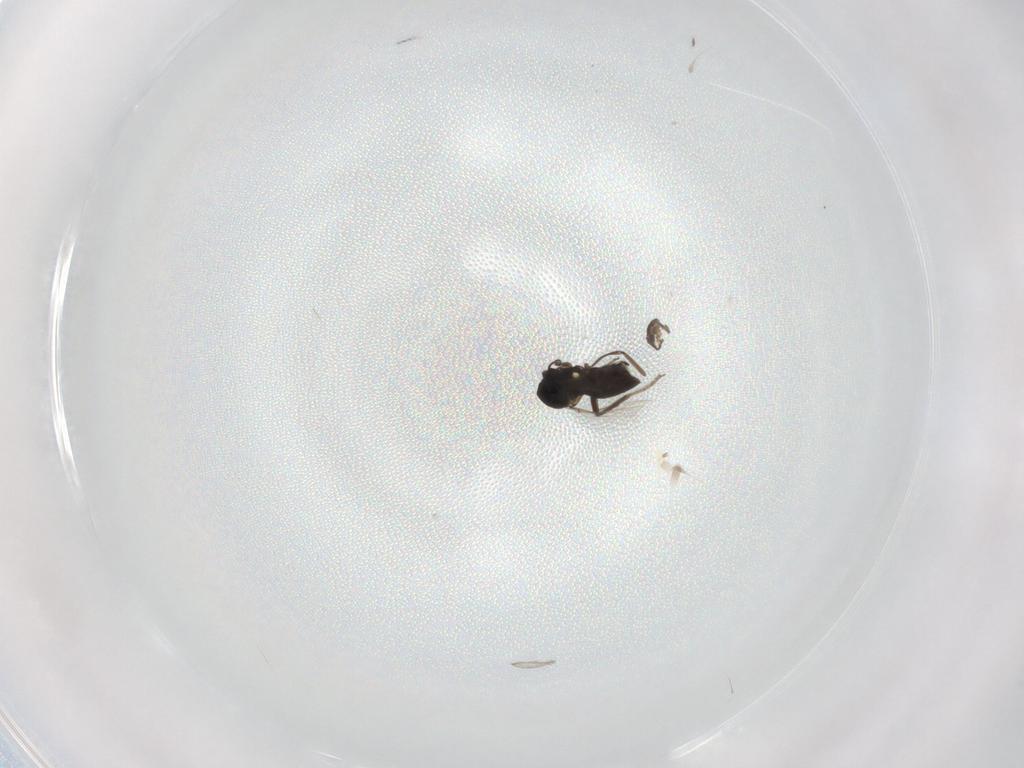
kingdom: Animalia
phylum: Arthropoda
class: Insecta
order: Diptera
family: Ceratopogonidae
